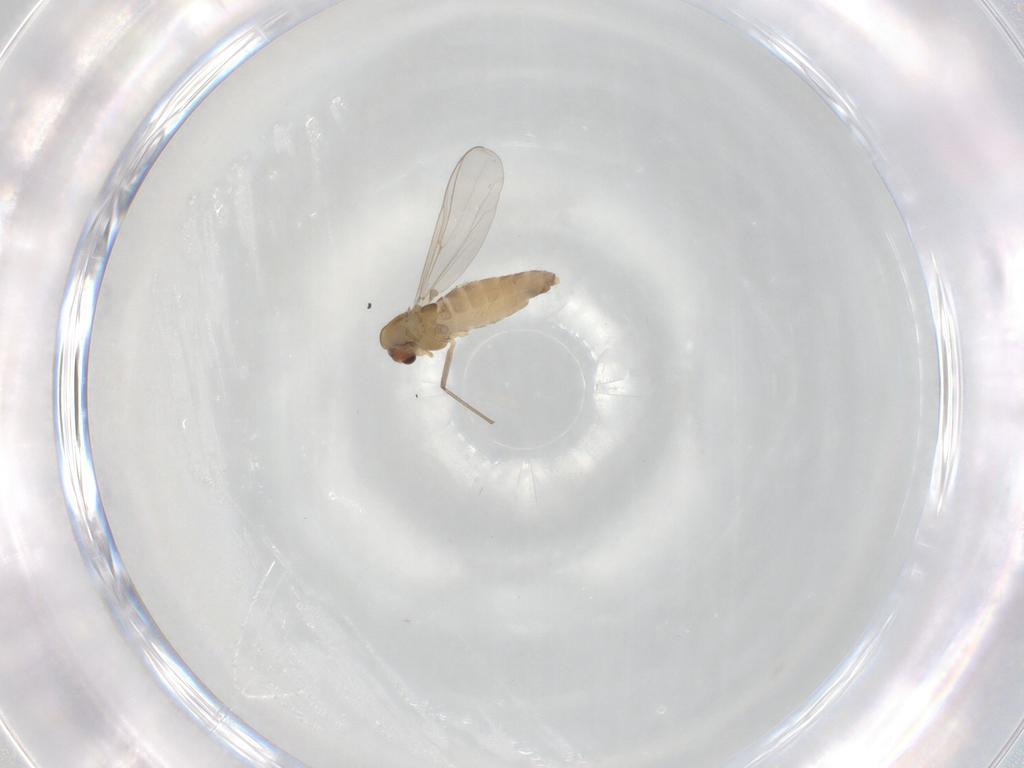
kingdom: Animalia
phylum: Arthropoda
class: Insecta
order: Diptera
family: Chironomidae
